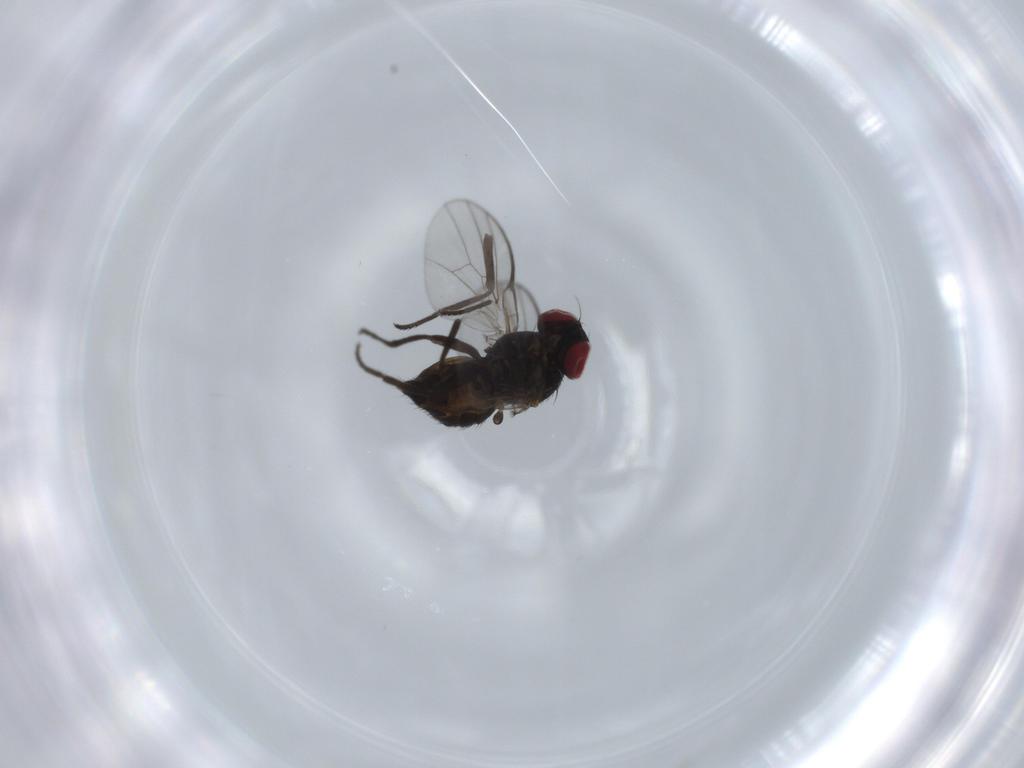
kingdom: Animalia
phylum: Arthropoda
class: Insecta
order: Diptera
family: Agromyzidae
